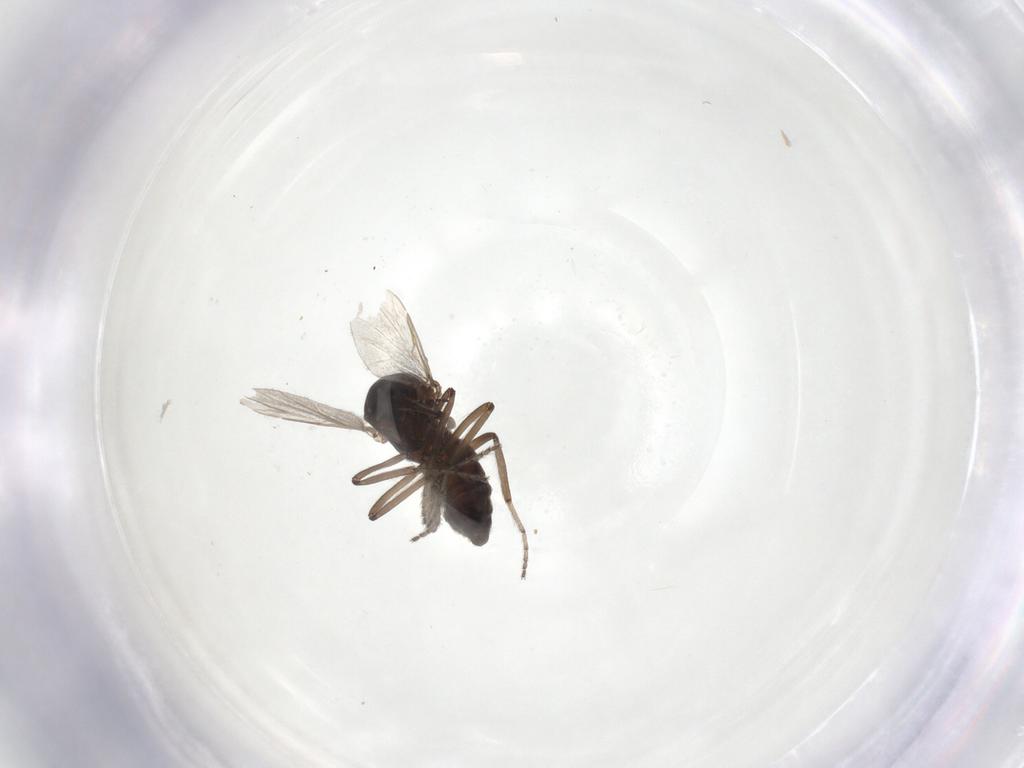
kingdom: Animalia
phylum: Arthropoda
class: Insecta
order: Diptera
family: Ceratopogonidae
